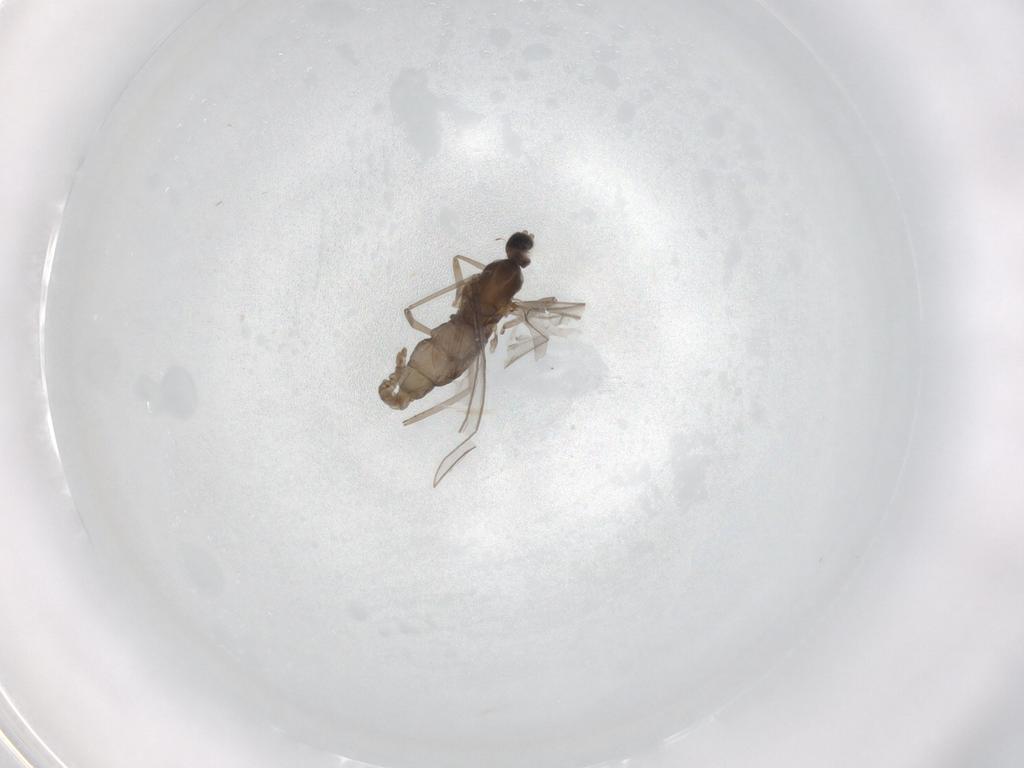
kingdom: Animalia
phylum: Arthropoda
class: Insecta
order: Diptera
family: Cecidomyiidae
